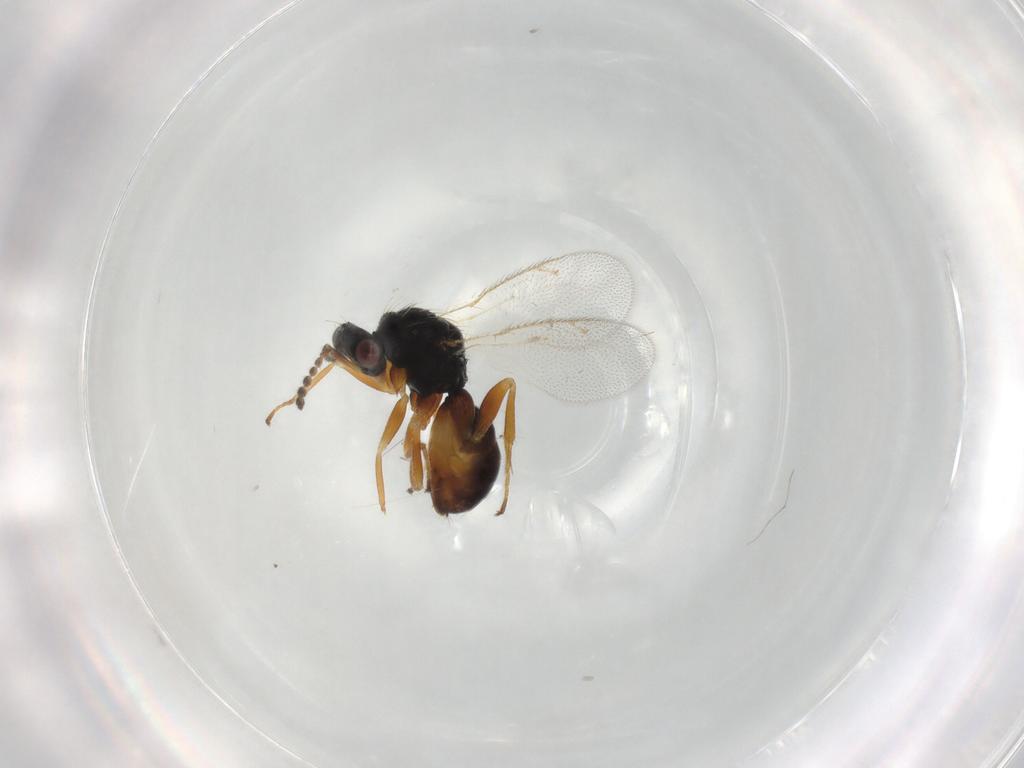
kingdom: Animalia
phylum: Arthropoda
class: Insecta
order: Hymenoptera
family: Eulophidae
